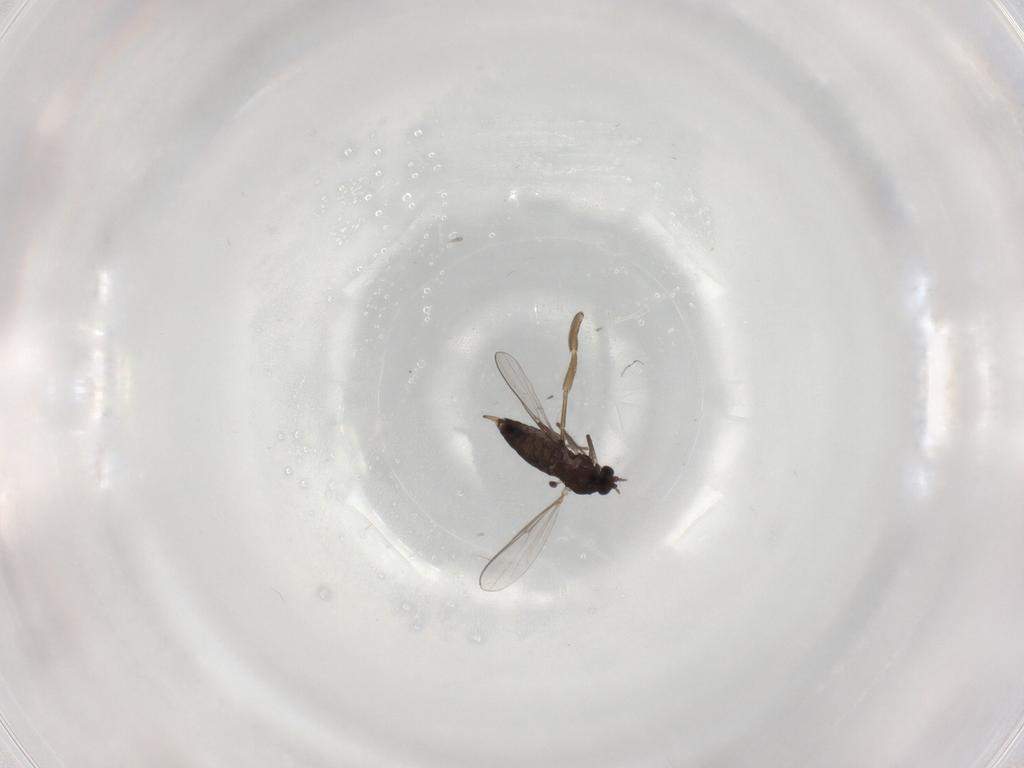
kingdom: Animalia
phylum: Arthropoda
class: Insecta
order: Diptera
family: Chironomidae
